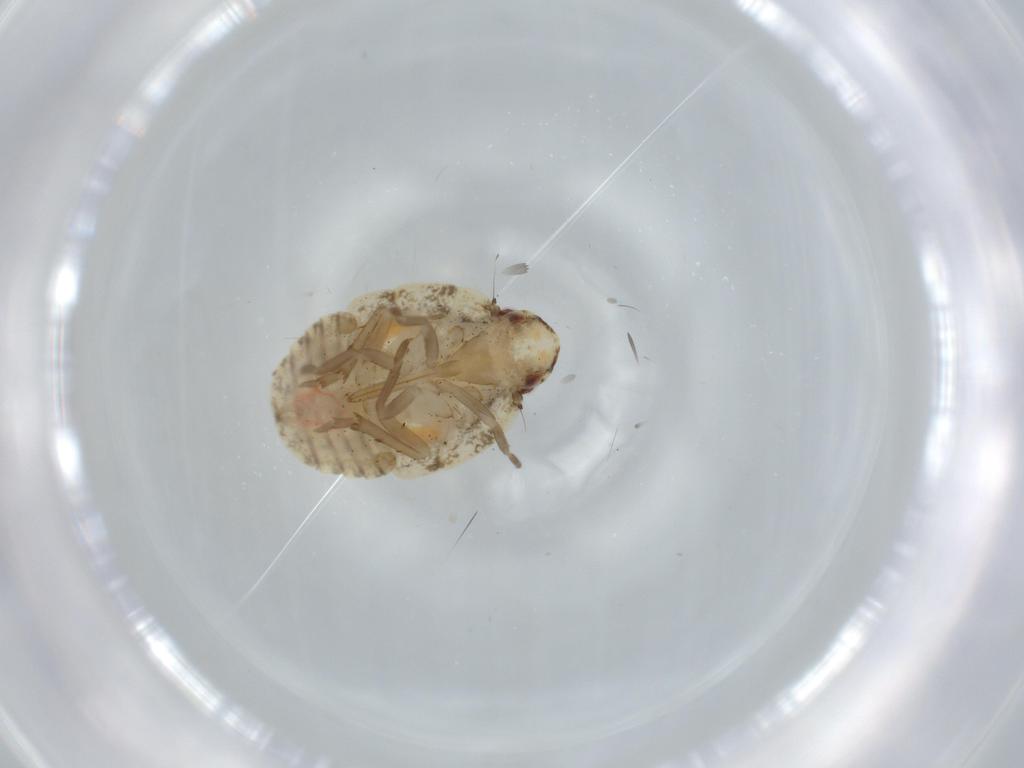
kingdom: Animalia
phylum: Arthropoda
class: Insecta
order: Hemiptera
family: Flatidae
